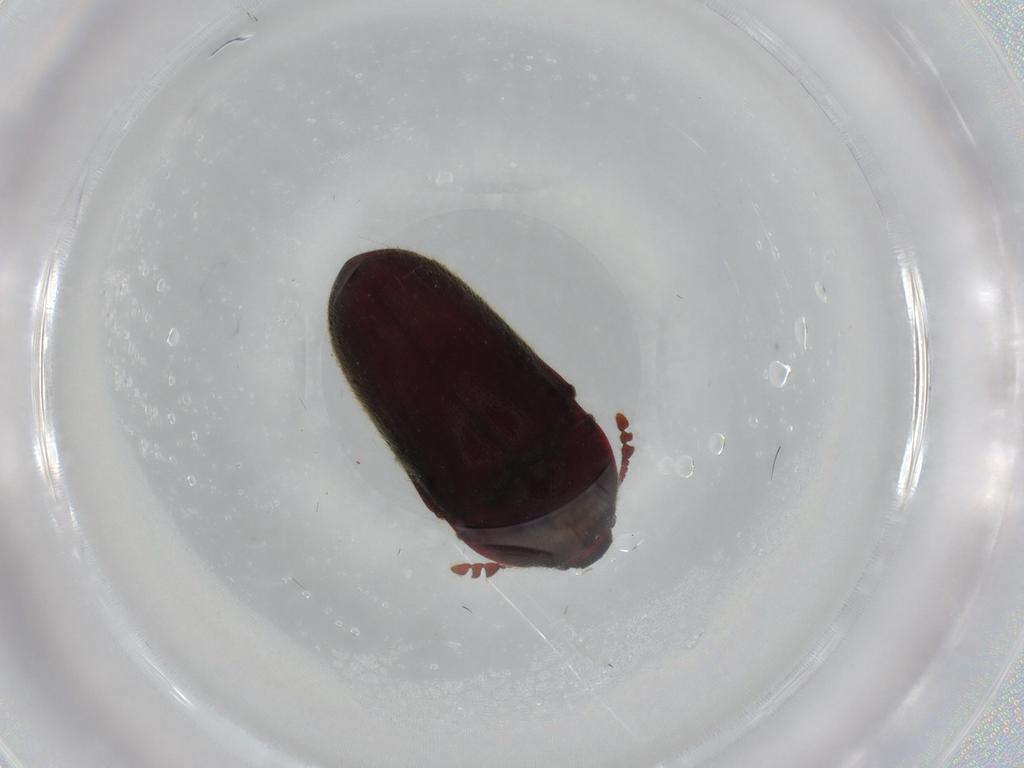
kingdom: Animalia
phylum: Arthropoda
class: Insecta
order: Coleoptera
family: Throscidae
